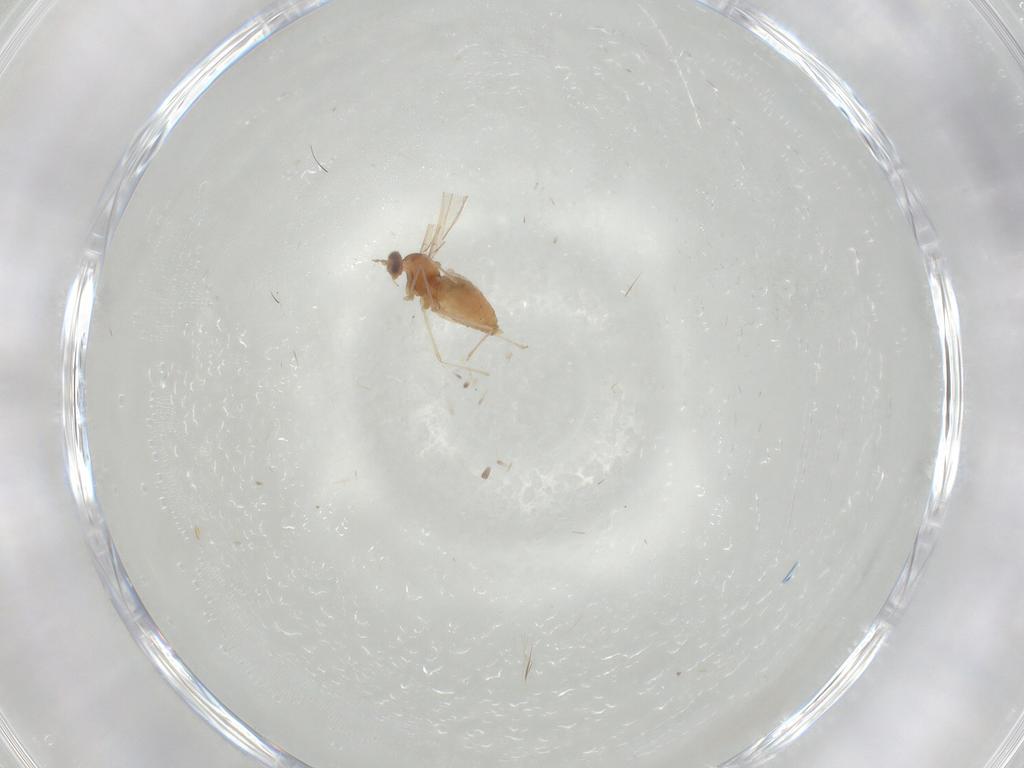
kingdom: Animalia
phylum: Arthropoda
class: Insecta
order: Diptera
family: Cecidomyiidae
